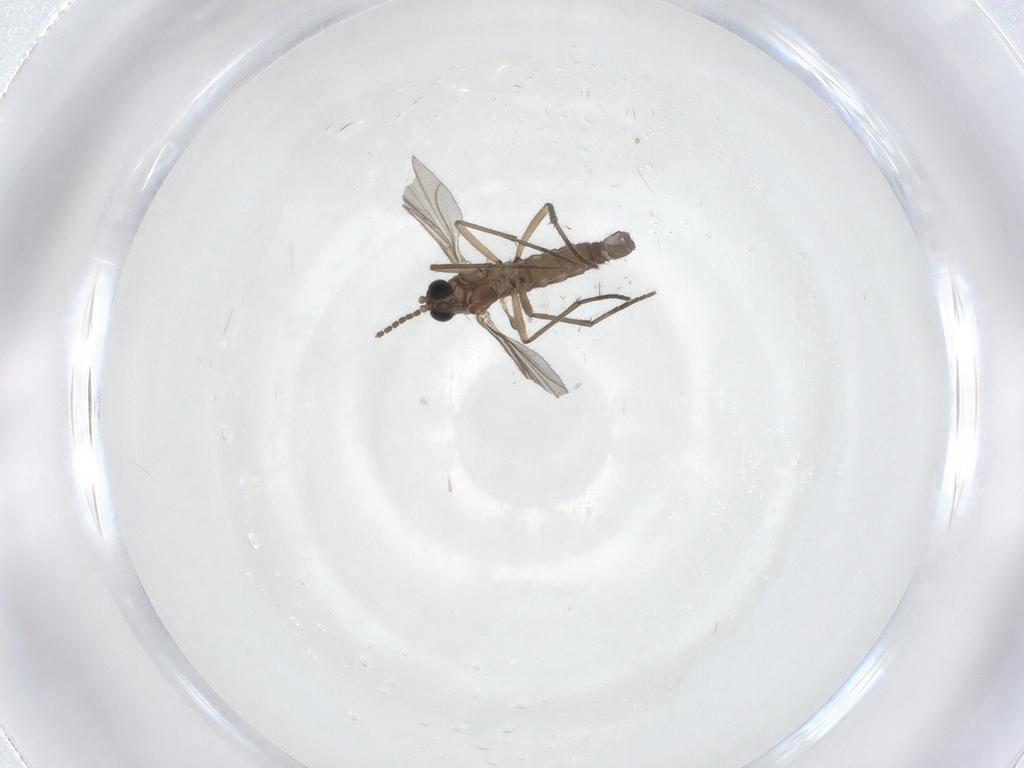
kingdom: Animalia
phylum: Arthropoda
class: Insecta
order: Diptera
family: Sciaridae
